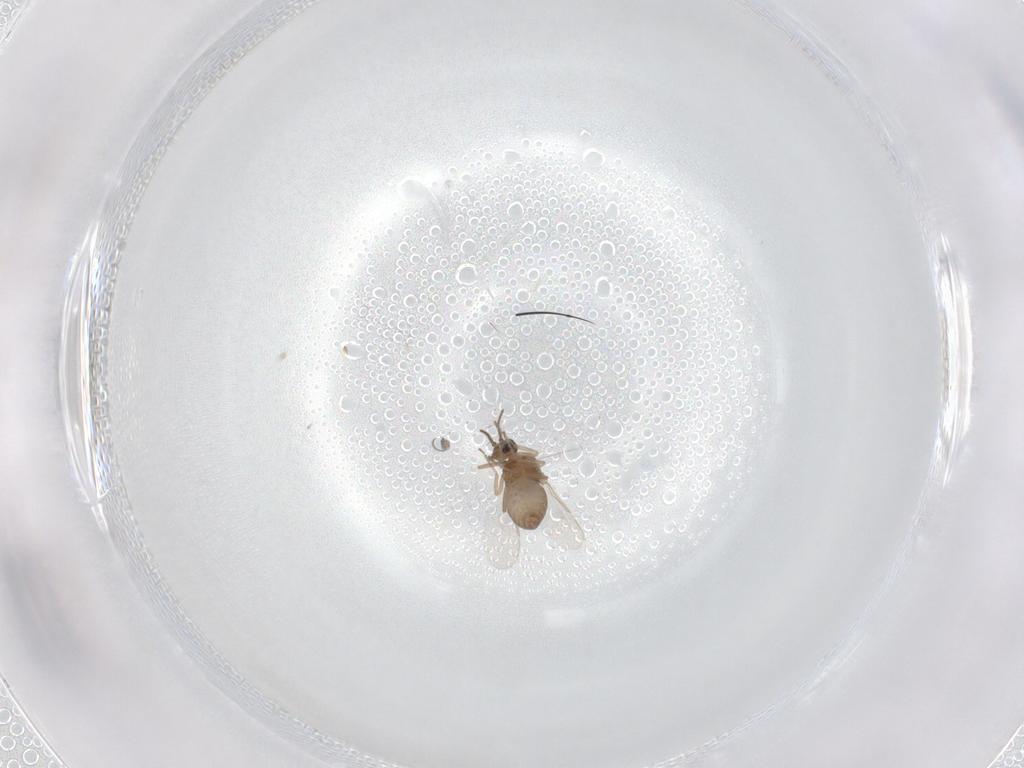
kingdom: Animalia
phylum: Arthropoda
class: Insecta
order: Diptera
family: Ceratopogonidae
